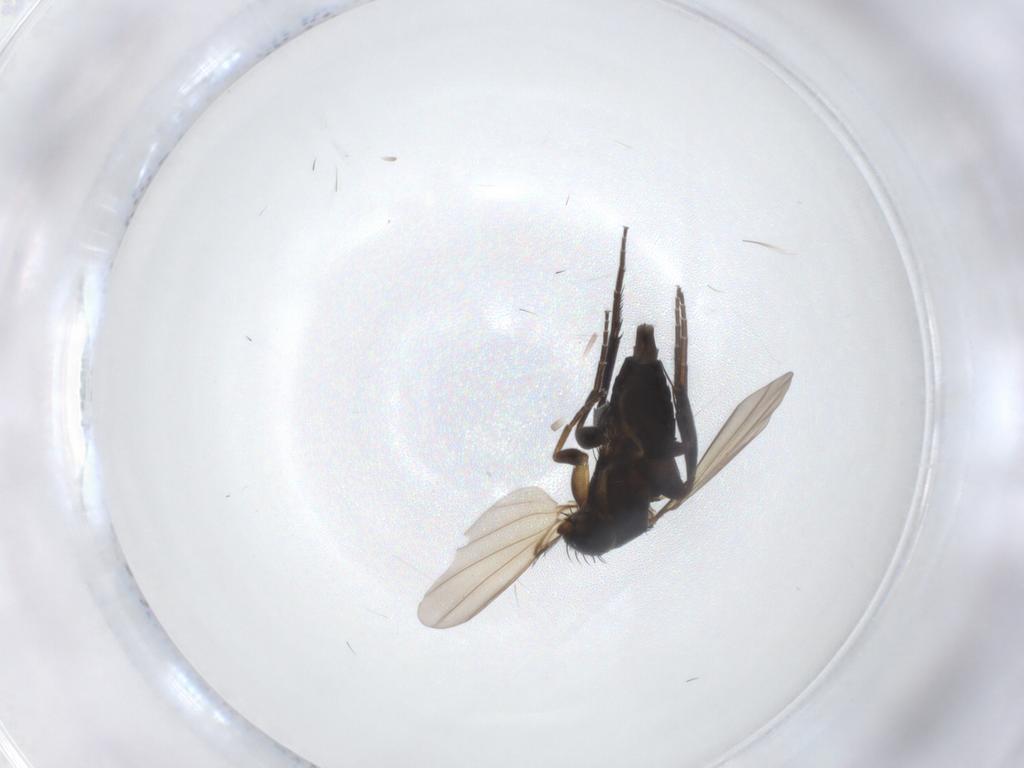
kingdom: Animalia
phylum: Arthropoda
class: Insecta
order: Diptera
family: Phoridae
